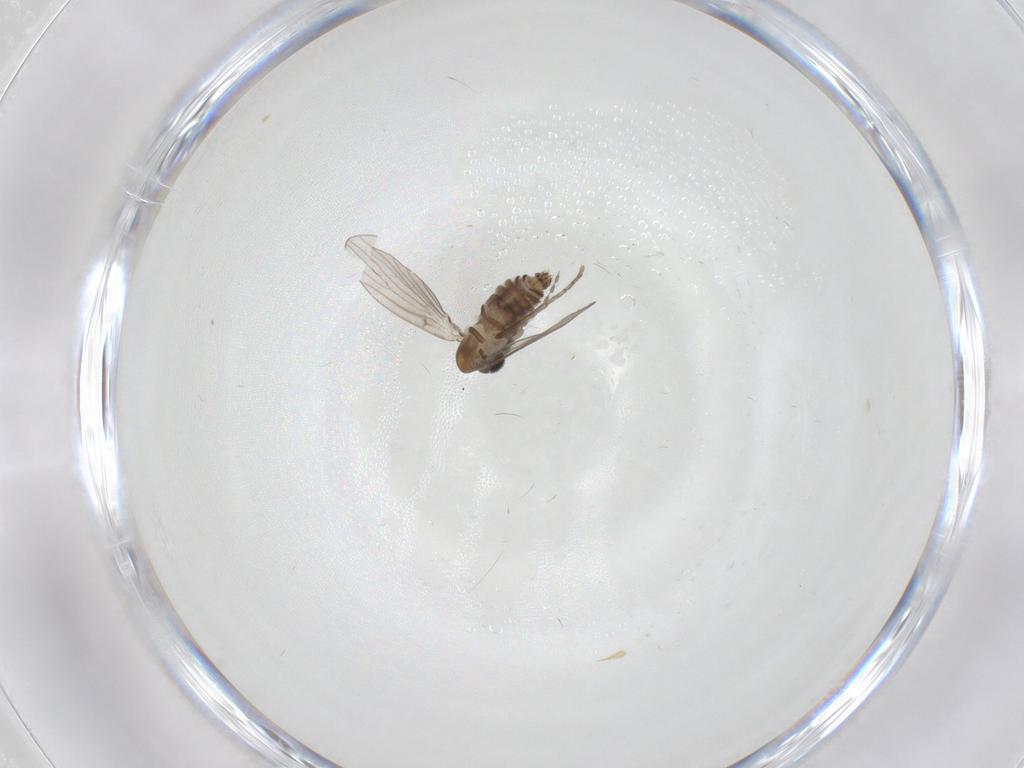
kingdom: Animalia
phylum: Arthropoda
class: Insecta
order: Diptera
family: Psychodidae
